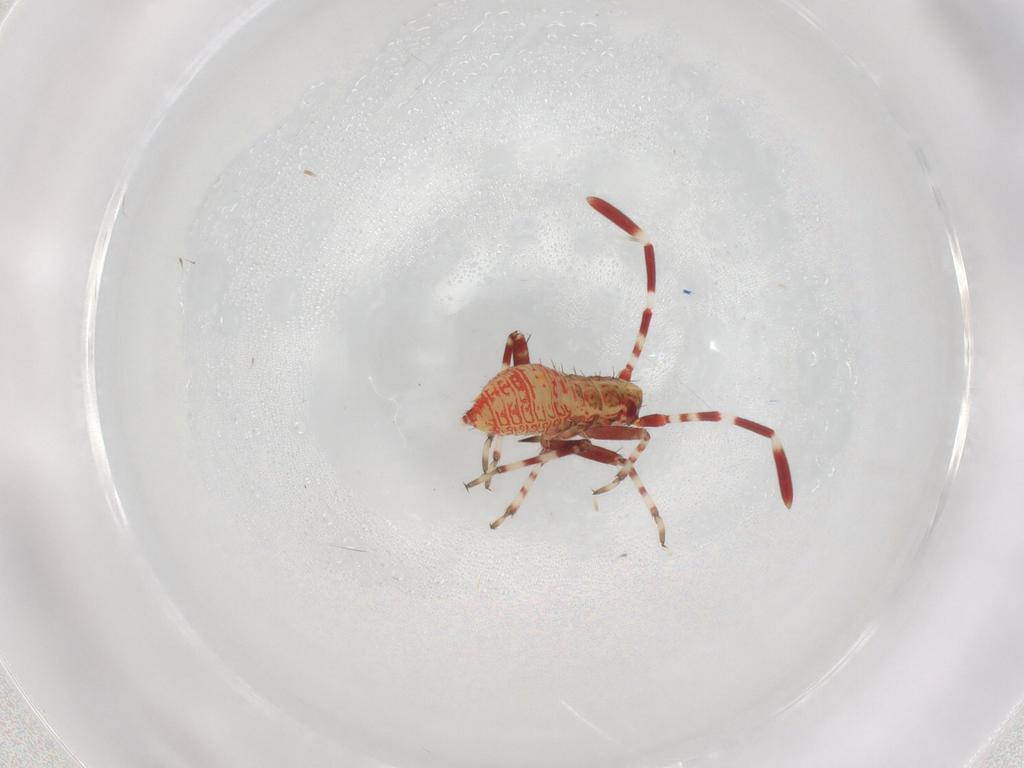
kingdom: Animalia
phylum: Arthropoda
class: Insecta
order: Hemiptera
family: Miridae
